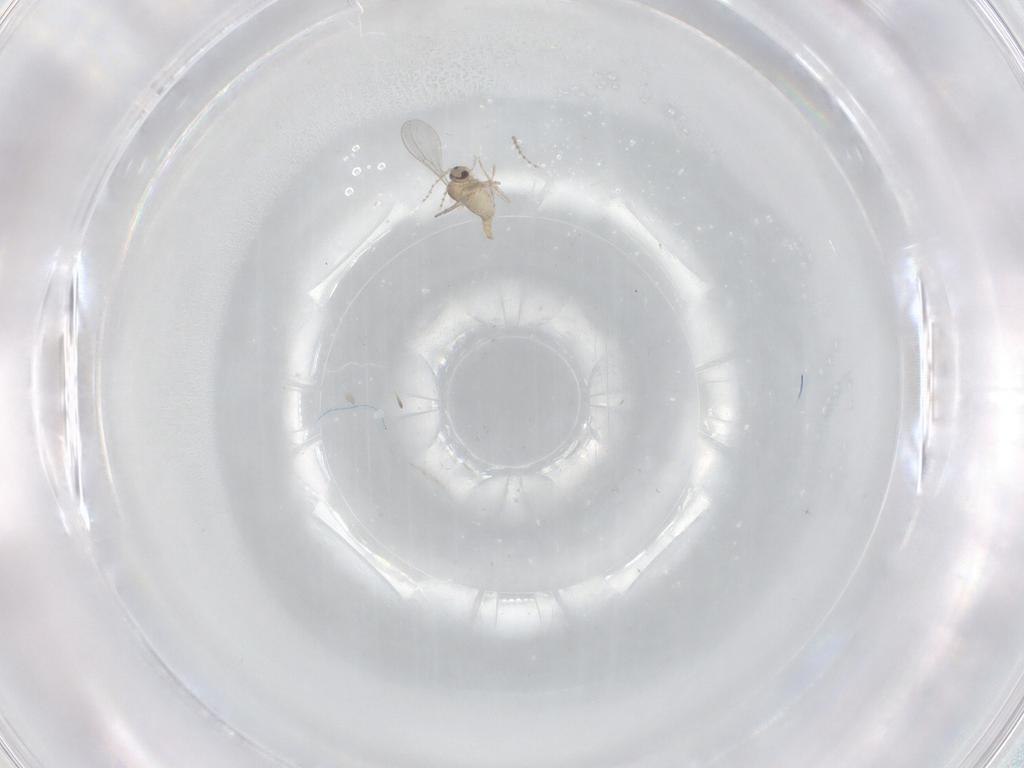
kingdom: Animalia
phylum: Arthropoda
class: Insecta
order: Diptera
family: Cecidomyiidae
